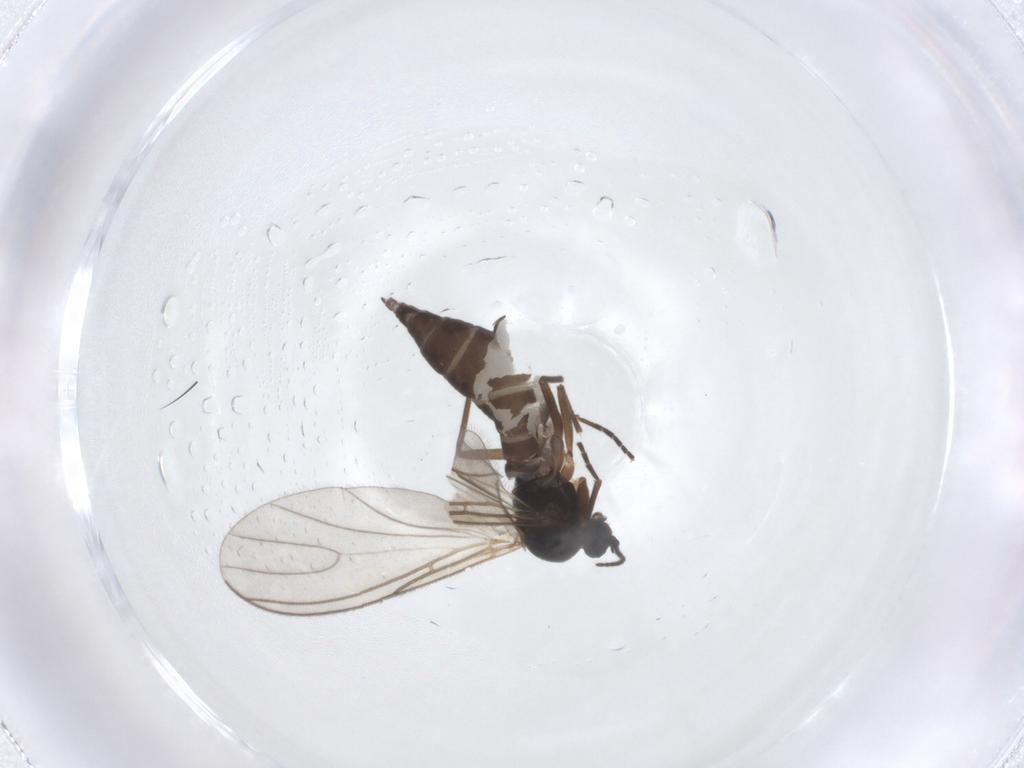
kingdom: Animalia
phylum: Arthropoda
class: Insecta
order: Diptera
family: Sciaridae
